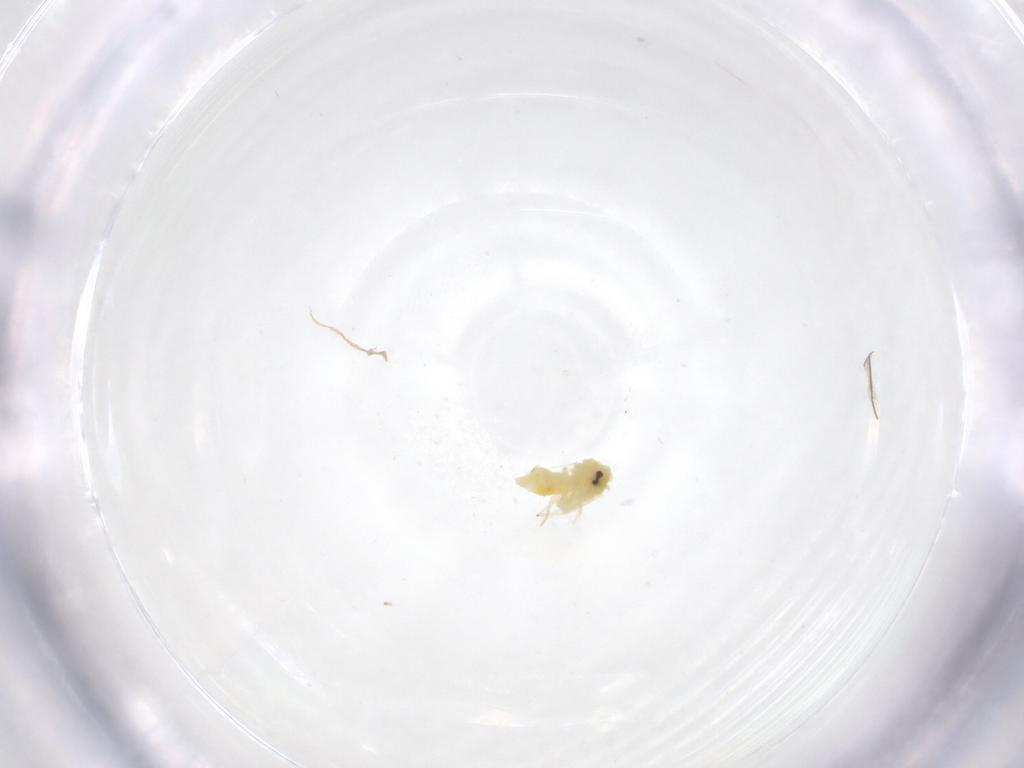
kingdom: Animalia
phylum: Arthropoda
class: Insecta
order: Hemiptera
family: Aleyrodidae
